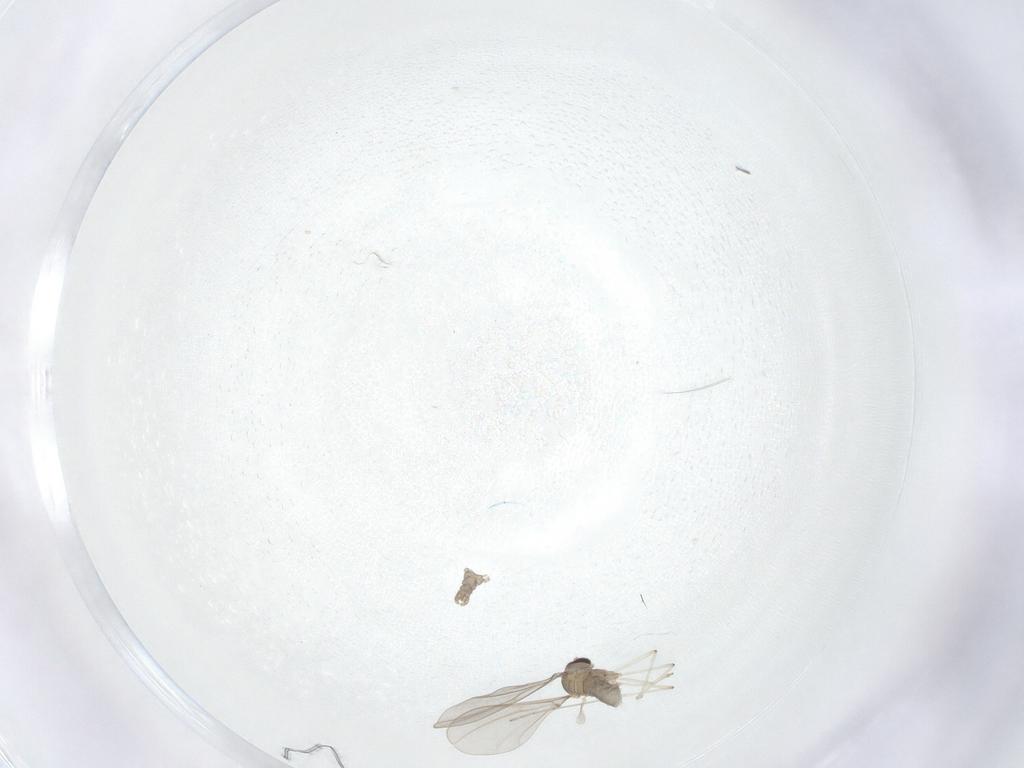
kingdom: Animalia
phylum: Arthropoda
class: Insecta
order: Diptera
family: Cecidomyiidae
